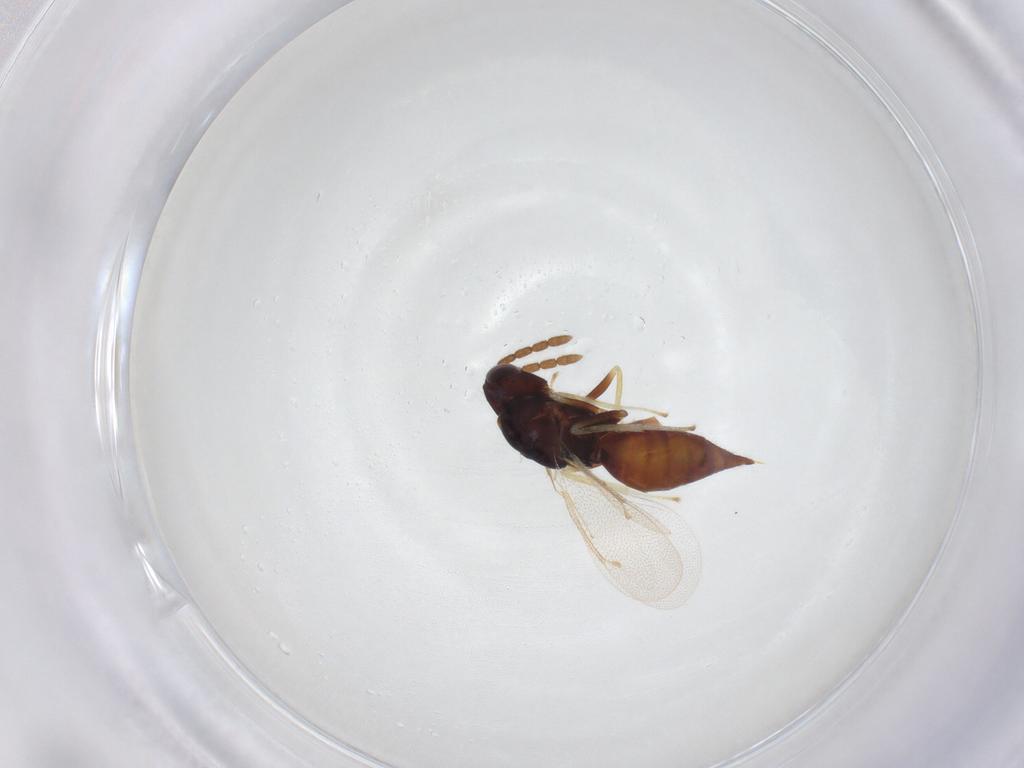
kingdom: Animalia
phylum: Arthropoda
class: Insecta
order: Hymenoptera
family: Eulophidae
